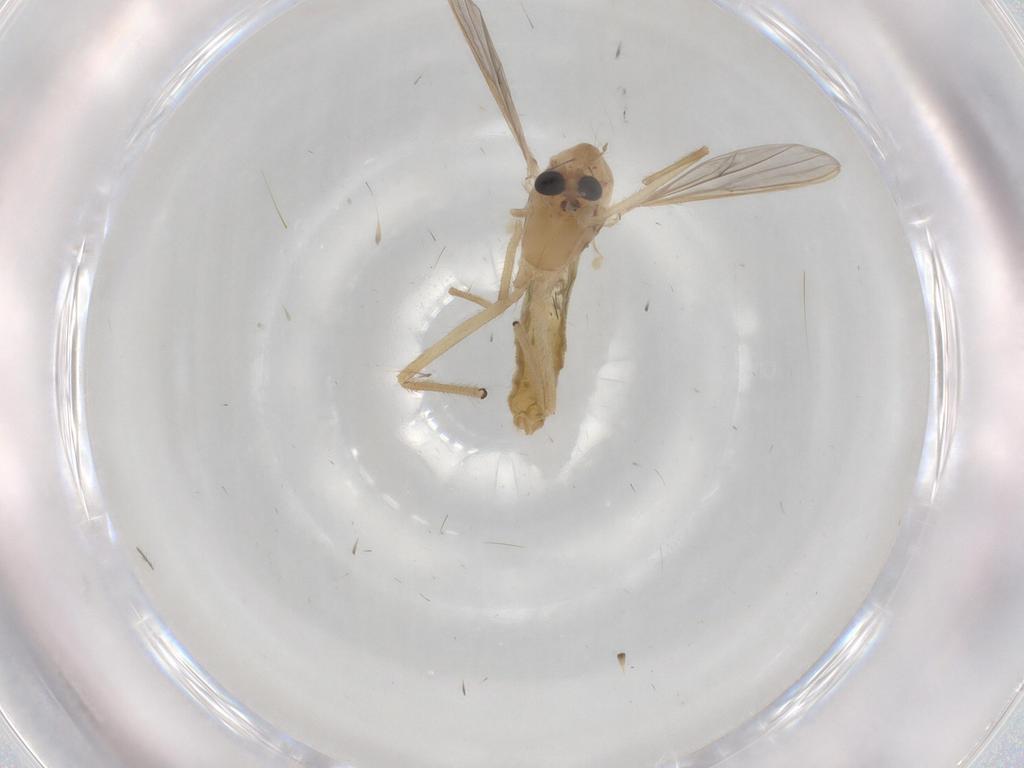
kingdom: Animalia
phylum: Arthropoda
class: Insecta
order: Diptera
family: Chironomidae
